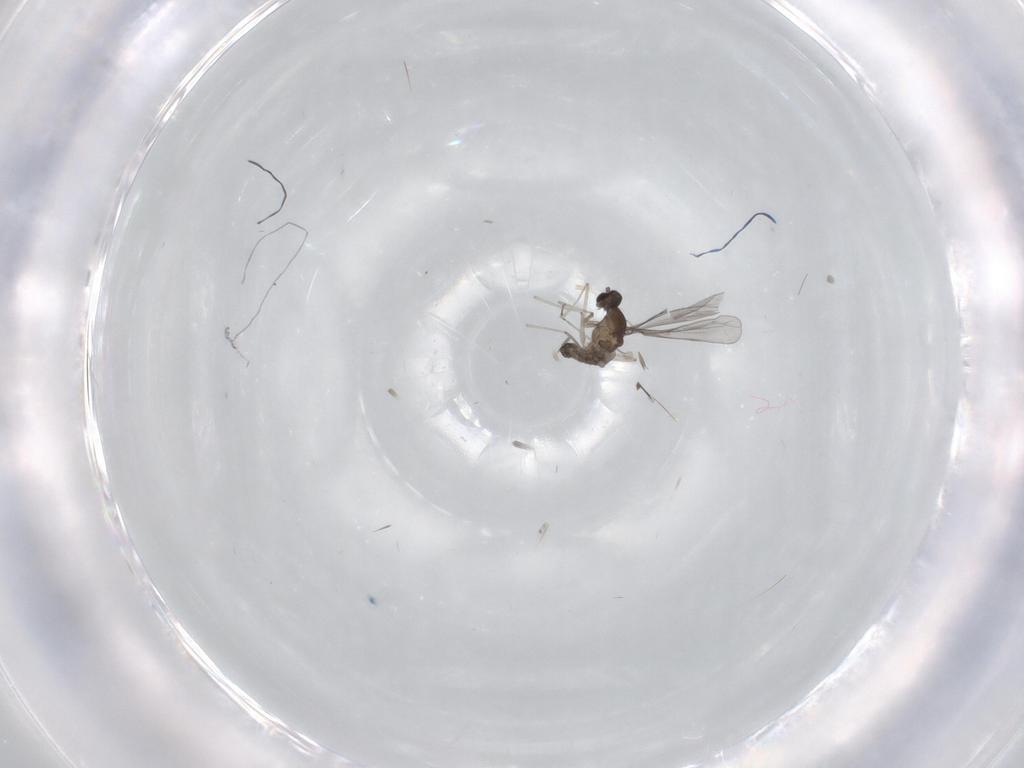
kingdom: Animalia
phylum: Arthropoda
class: Insecta
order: Diptera
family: Cecidomyiidae
